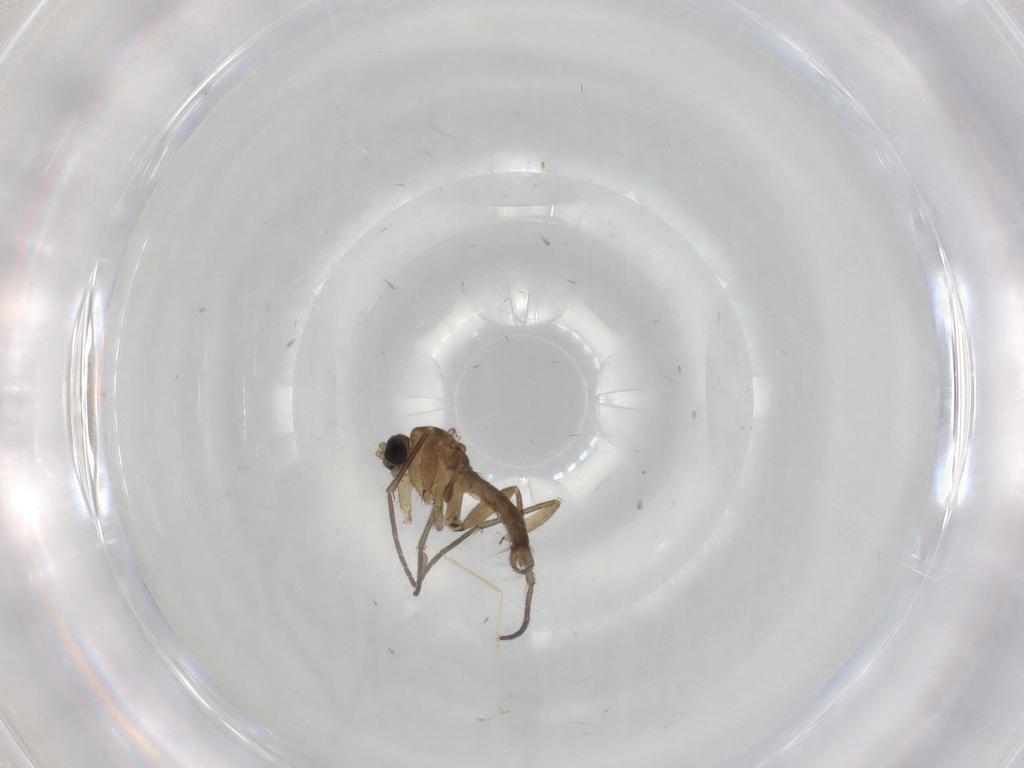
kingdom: Animalia
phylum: Arthropoda
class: Insecta
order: Diptera
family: Sciaridae
